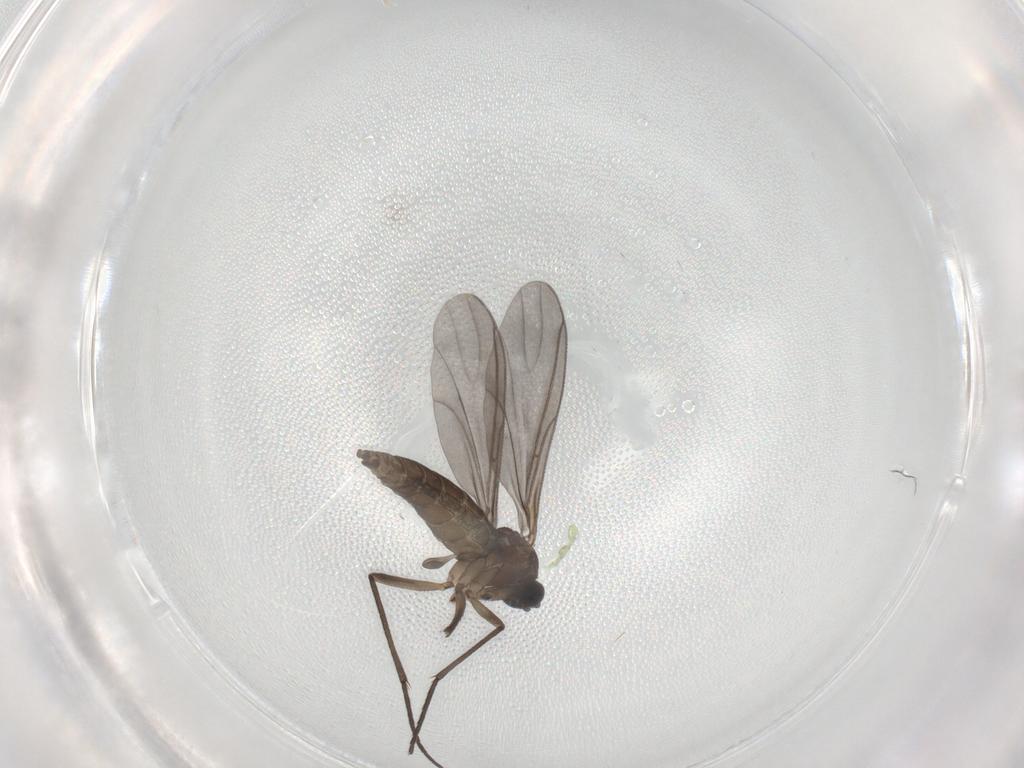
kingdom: Animalia
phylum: Arthropoda
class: Insecta
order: Diptera
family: Sciaridae
